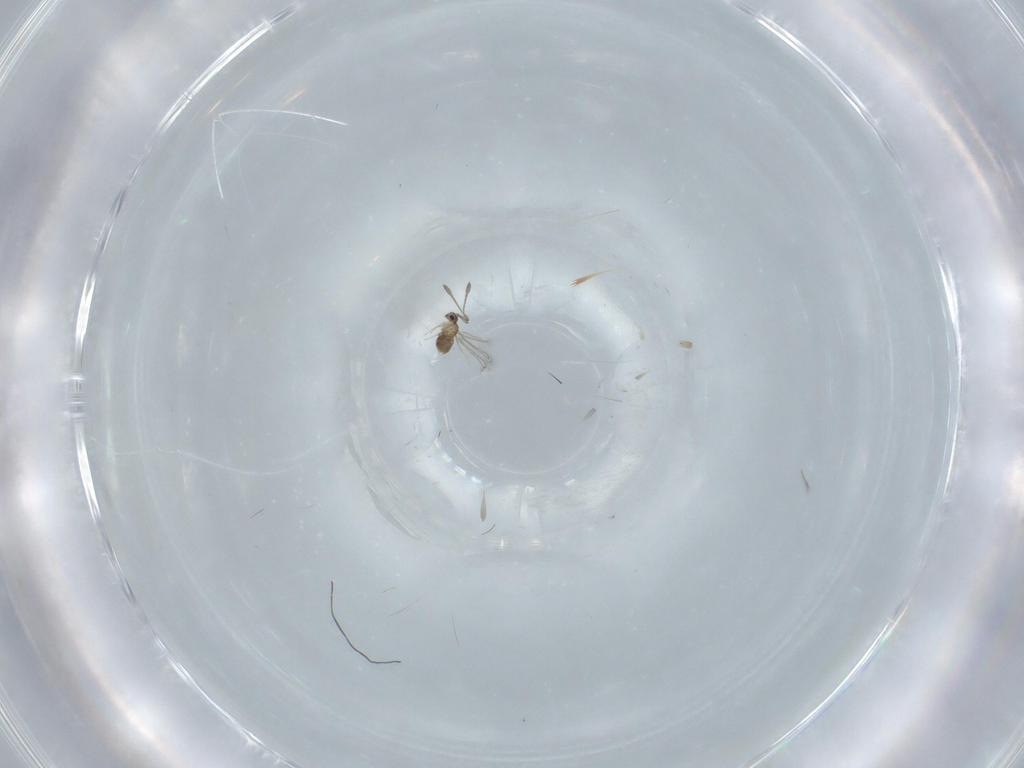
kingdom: Animalia
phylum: Arthropoda
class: Insecta
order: Hymenoptera
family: Mymaridae
